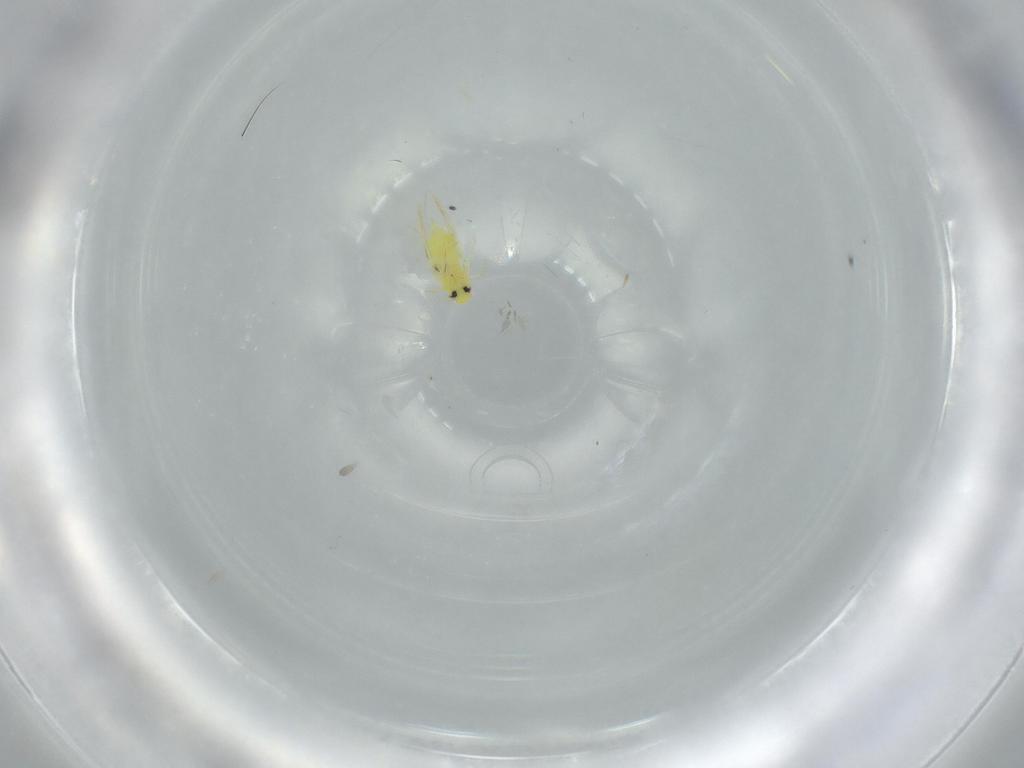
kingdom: Animalia
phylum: Arthropoda
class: Insecta
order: Hemiptera
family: Aleyrodidae
